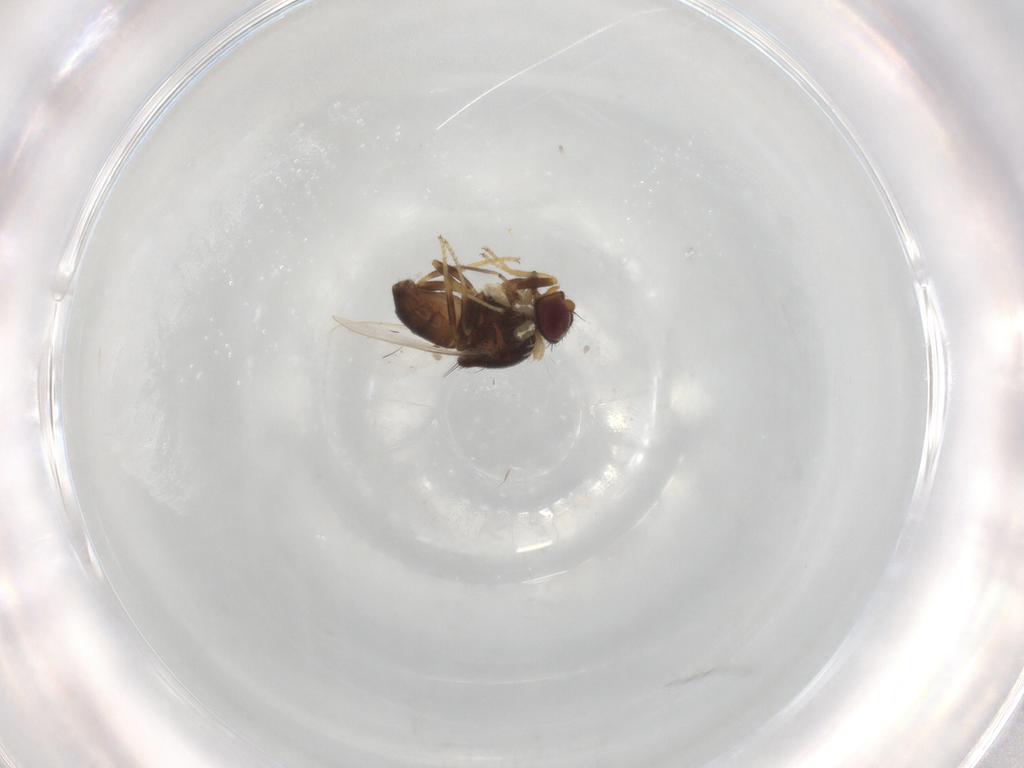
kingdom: Animalia
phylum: Arthropoda
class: Insecta
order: Diptera
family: Chloropidae
